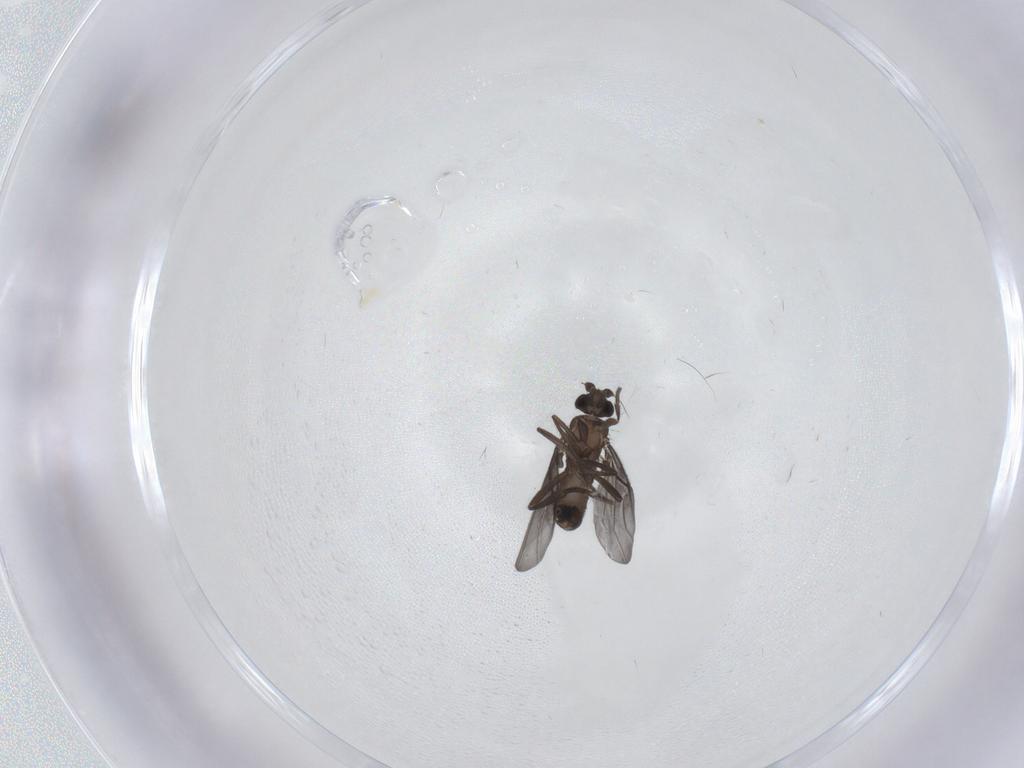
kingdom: Animalia
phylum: Arthropoda
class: Insecta
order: Diptera
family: Phoridae
